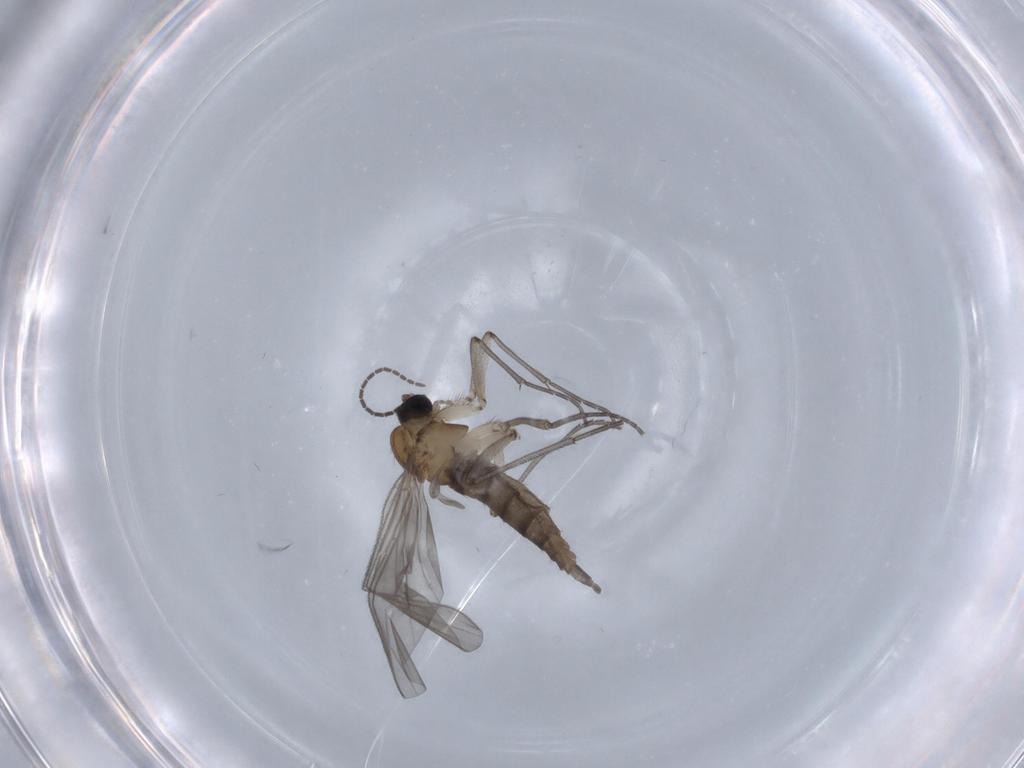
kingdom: Animalia
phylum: Arthropoda
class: Insecta
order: Diptera
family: Sciaridae
